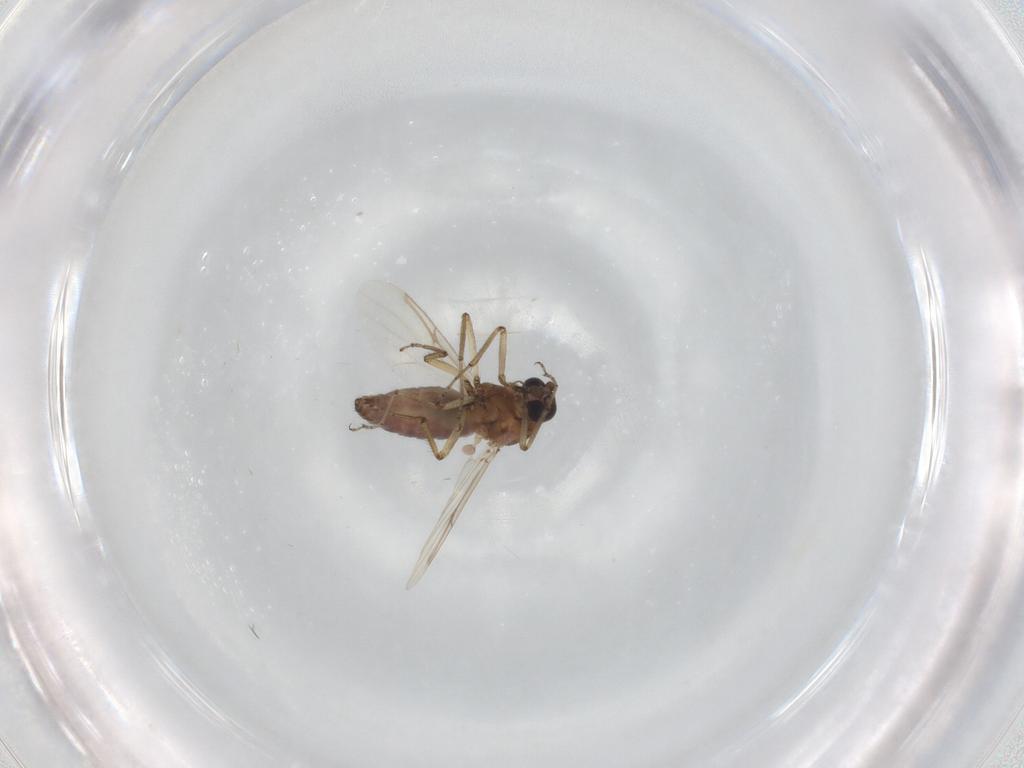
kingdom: Animalia
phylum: Arthropoda
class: Insecta
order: Diptera
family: Ceratopogonidae
